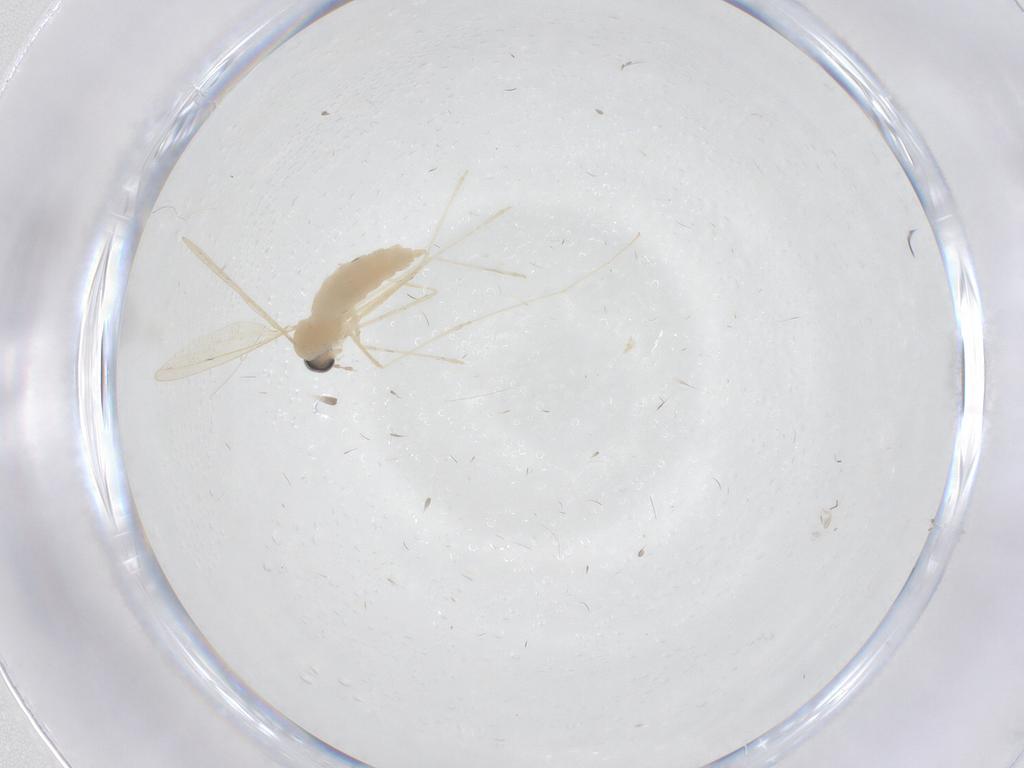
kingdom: Animalia
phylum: Arthropoda
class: Insecta
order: Diptera
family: Cecidomyiidae
